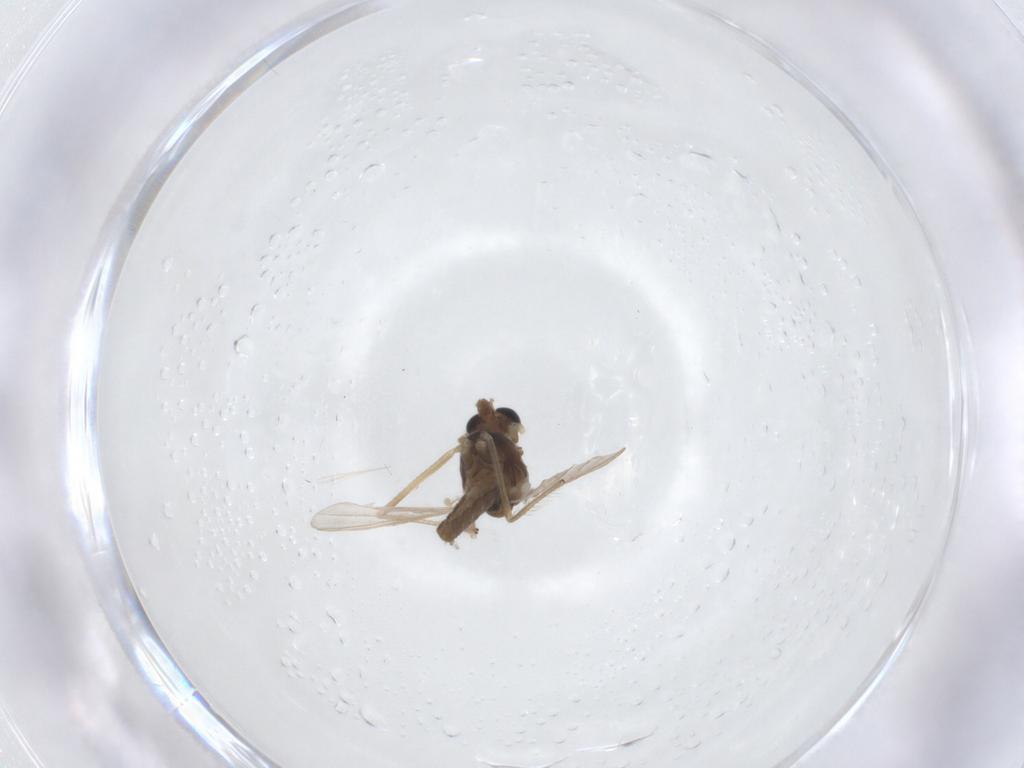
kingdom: Animalia
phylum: Arthropoda
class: Insecta
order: Diptera
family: Chironomidae
